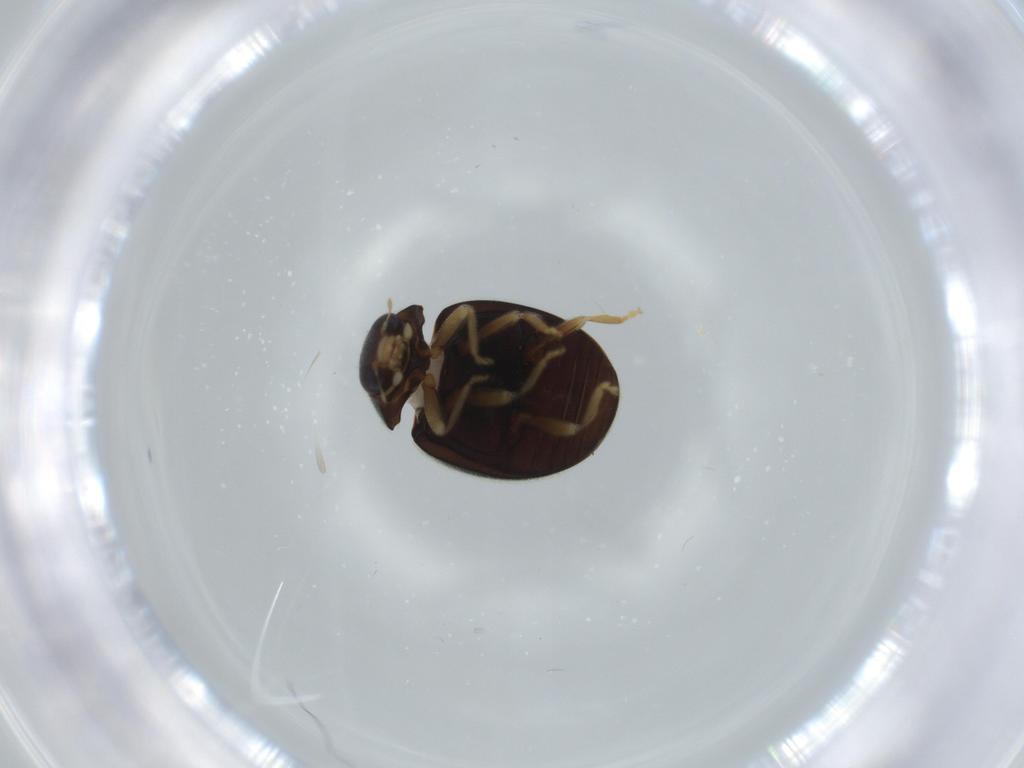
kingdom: Animalia
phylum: Arthropoda
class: Insecta
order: Coleoptera
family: Coccinellidae
